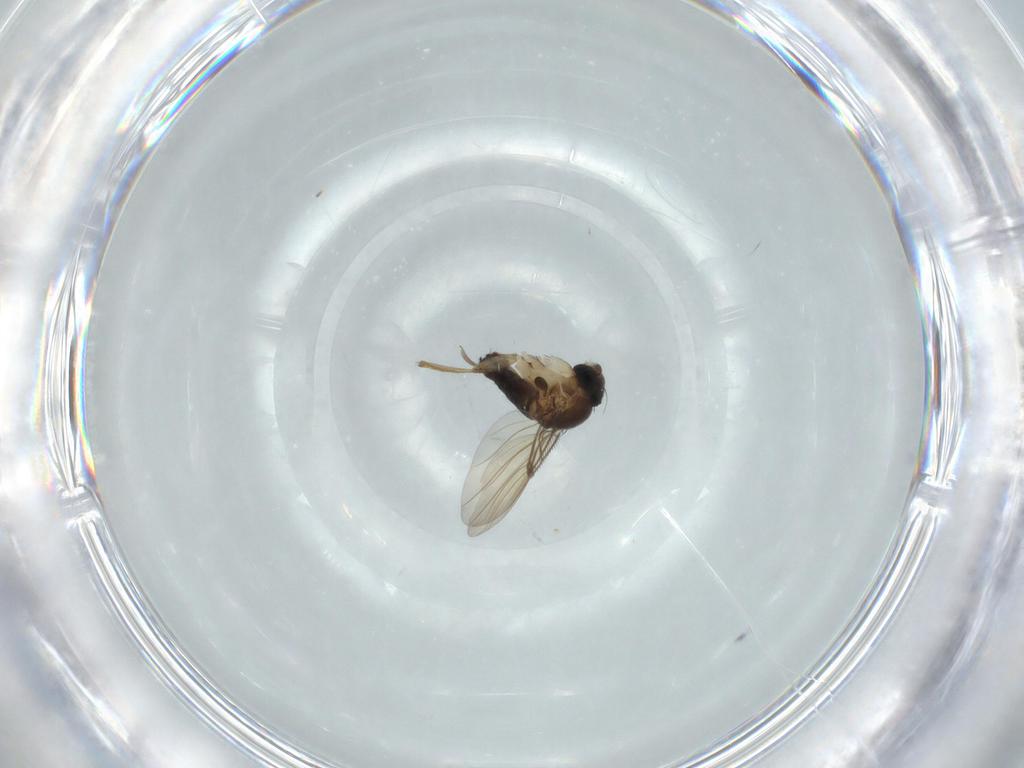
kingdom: Animalia
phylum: Arthropoda
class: Insecta
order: Diptera
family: Phoridae
